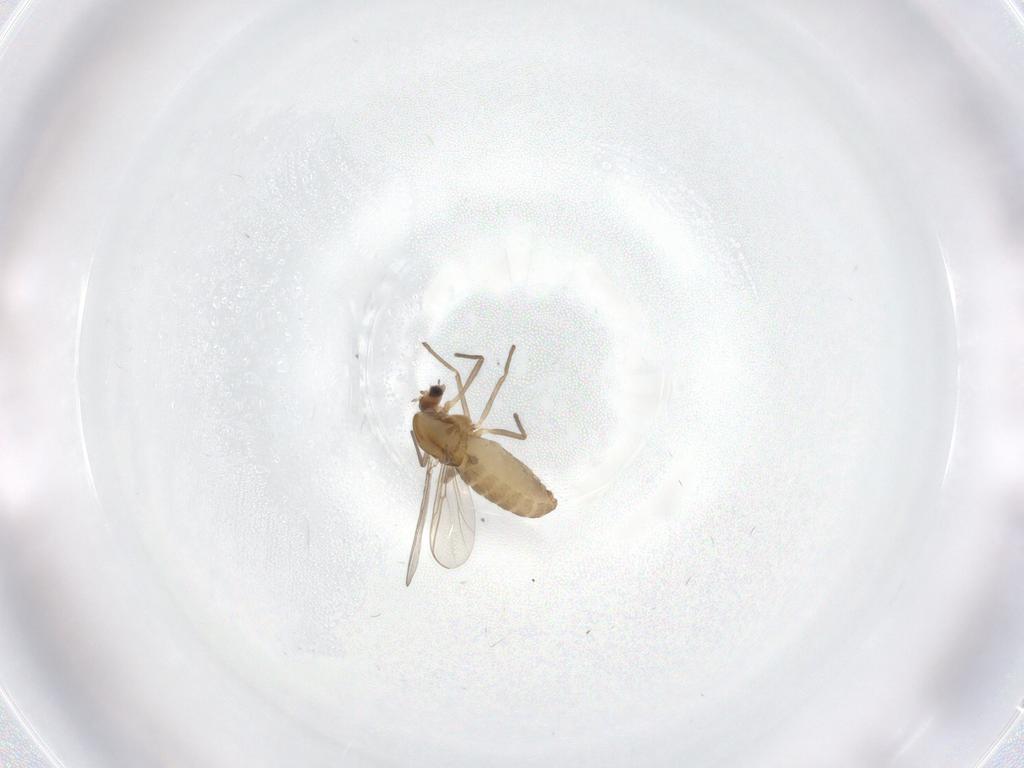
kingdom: Animalia
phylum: Arthropoda
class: Insecta
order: Diptera
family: Chironomidae
